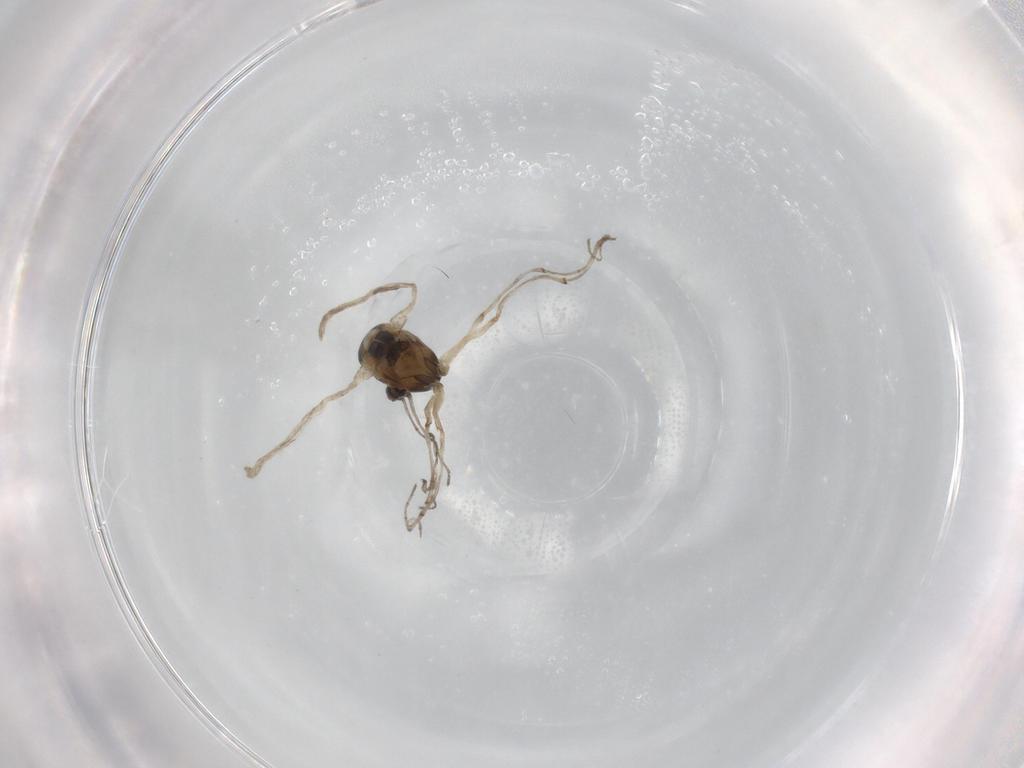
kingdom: Animalia
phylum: Arthropoda
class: Insecta
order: Diptera
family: Chironomidae
